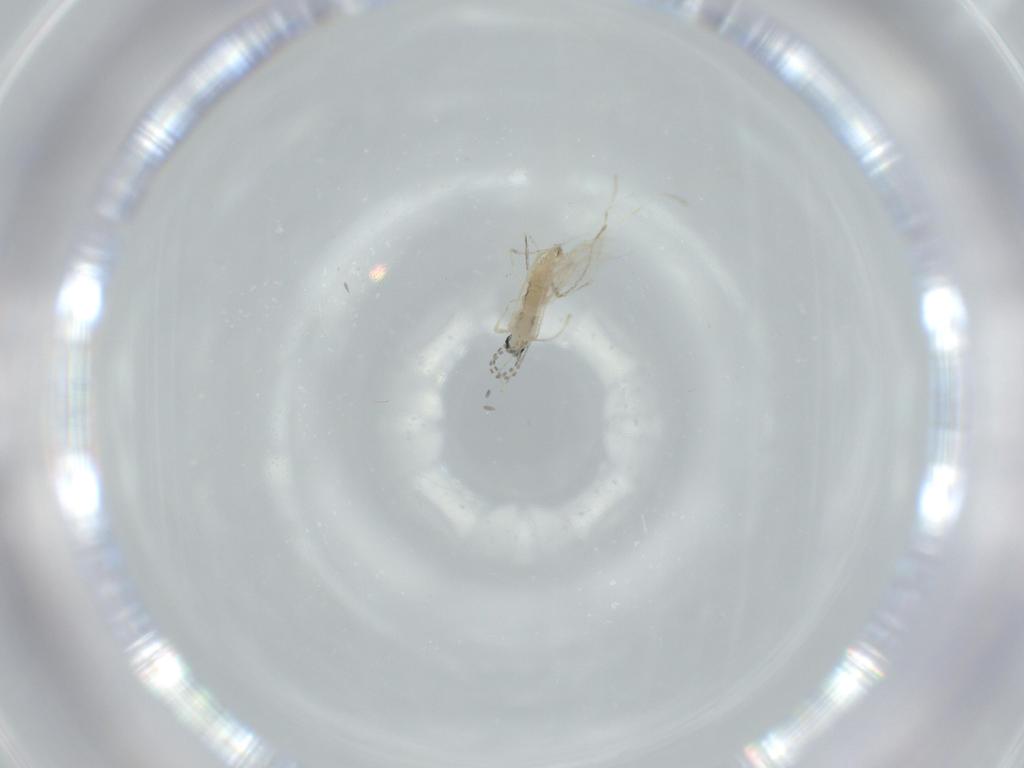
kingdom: Animalia
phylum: Arthropoda
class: Insecta
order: Diptera
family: Cecidomyiidae
